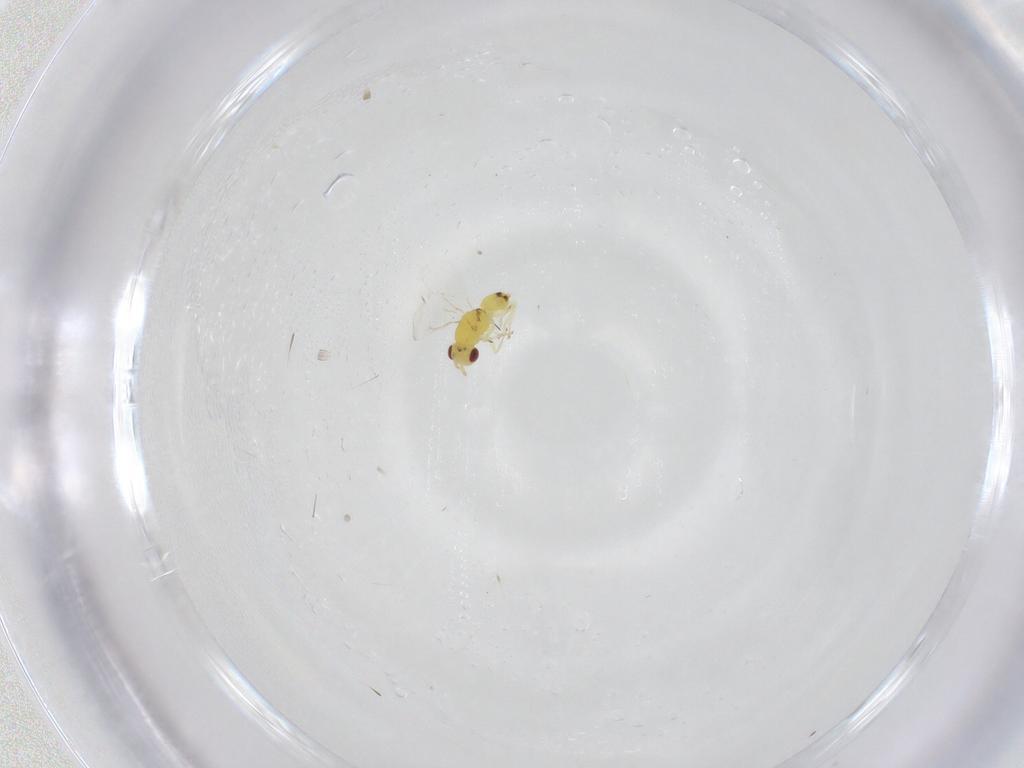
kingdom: Animalia
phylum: Arthropoda
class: Insecta
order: Hymenoptera
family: Eulophidae
